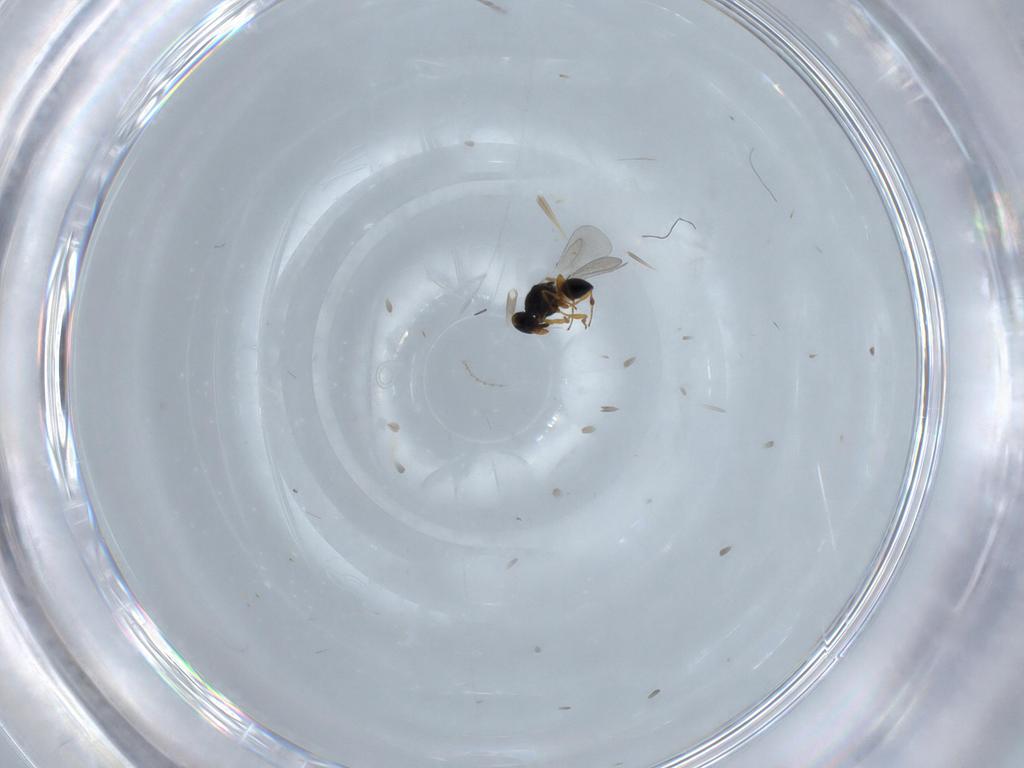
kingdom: Animalia
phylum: Arthropoda
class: Insecta
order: Hymenoptera
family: Platygastridae
